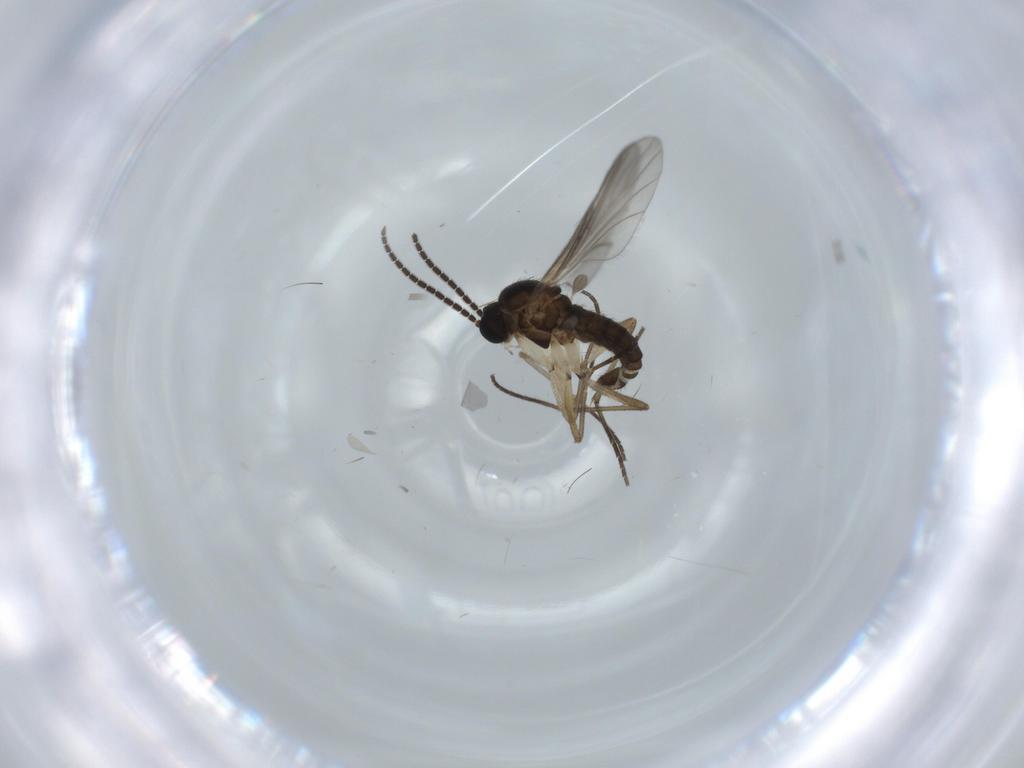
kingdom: Animalia
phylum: Arthropoda
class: Insecta
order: Diptera
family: Sciaridae
